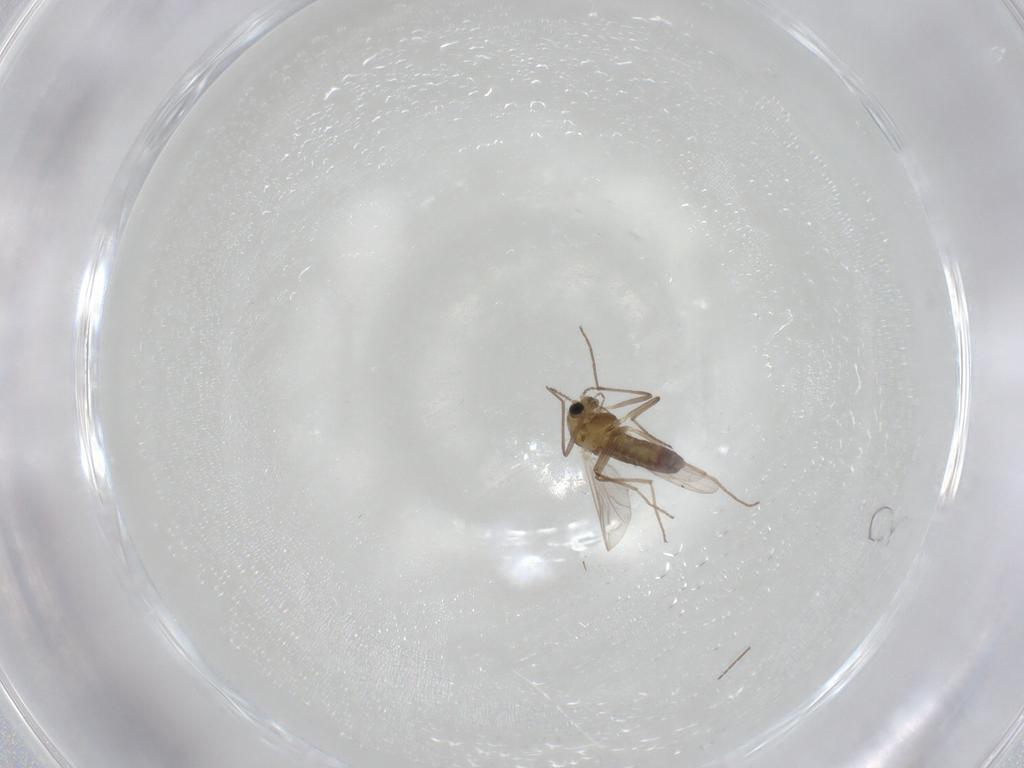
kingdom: Animalia
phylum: Arthropoda
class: Insecta
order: Diptera
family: Chironomidae
